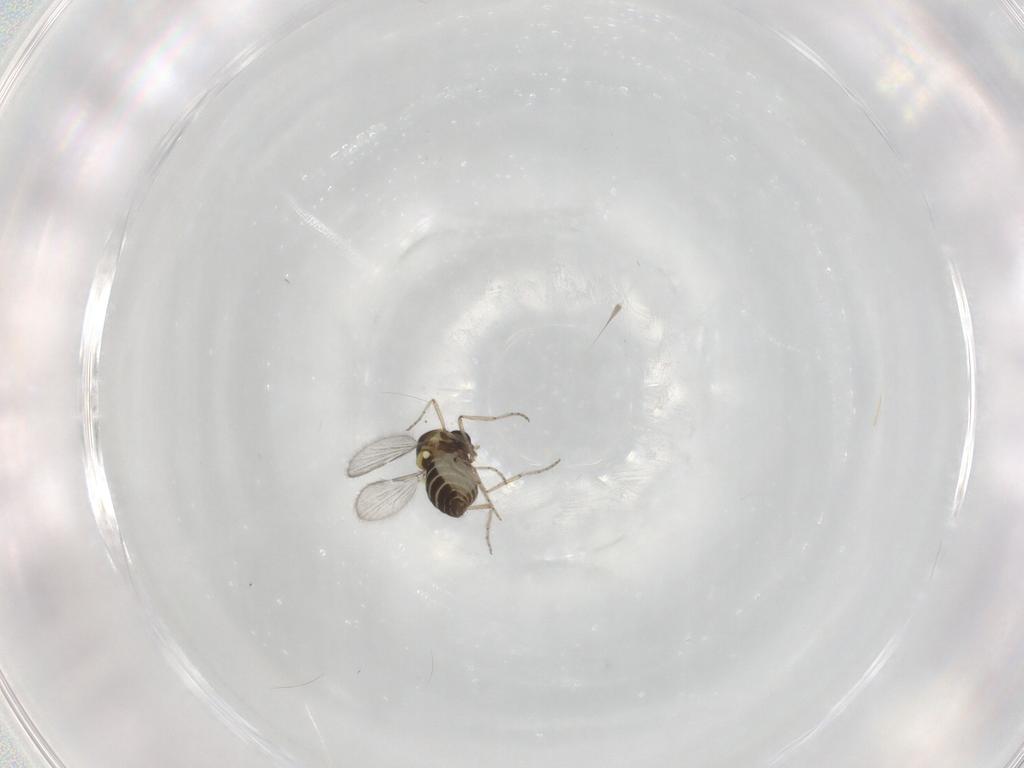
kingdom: Animalia
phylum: Arthropoda
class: Insecta
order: Diptera
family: Ceratopogonidae
